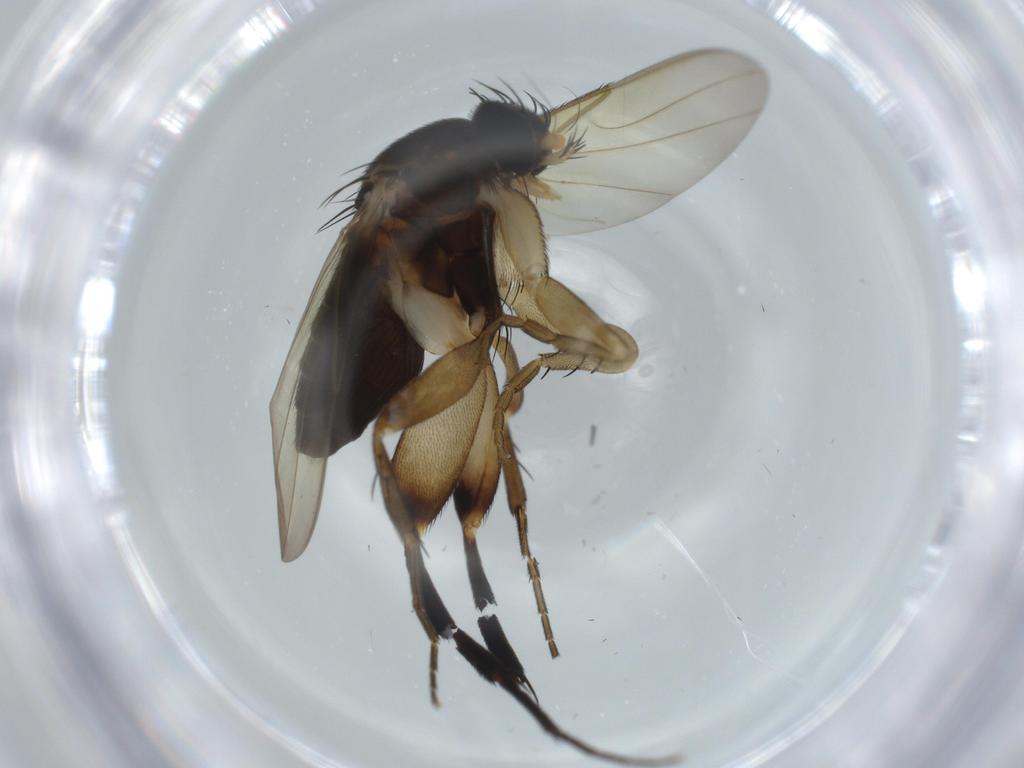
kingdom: Animalia
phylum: Arthropoda
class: Insecta
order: Diptera
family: Phoridae
